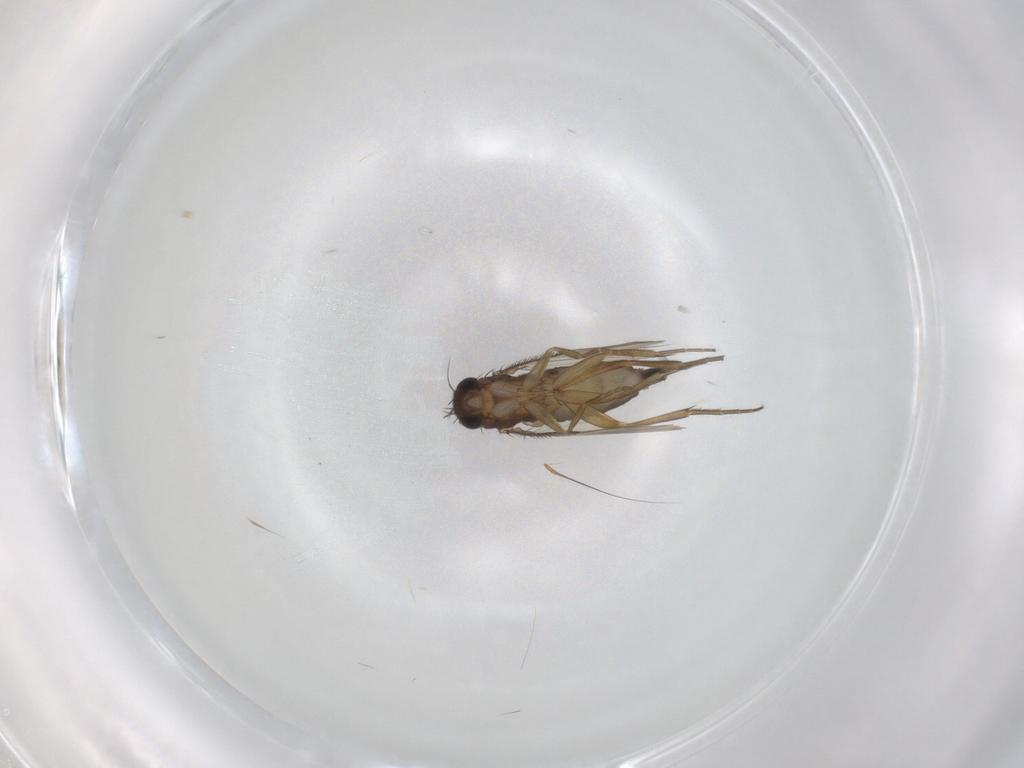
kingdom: Animalia
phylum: Arthropoda
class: Insecta
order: Diptera
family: Phoridae
